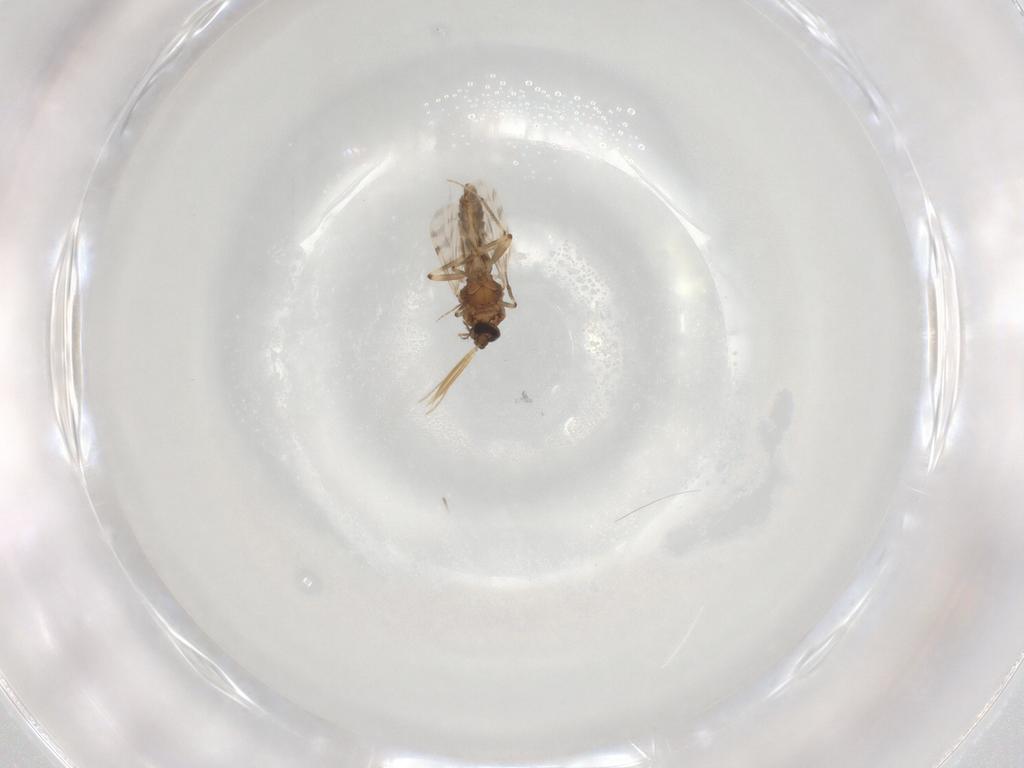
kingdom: Animalia
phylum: Arthropoda
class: Insecta
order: Diptera
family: Ceratopogonidae
